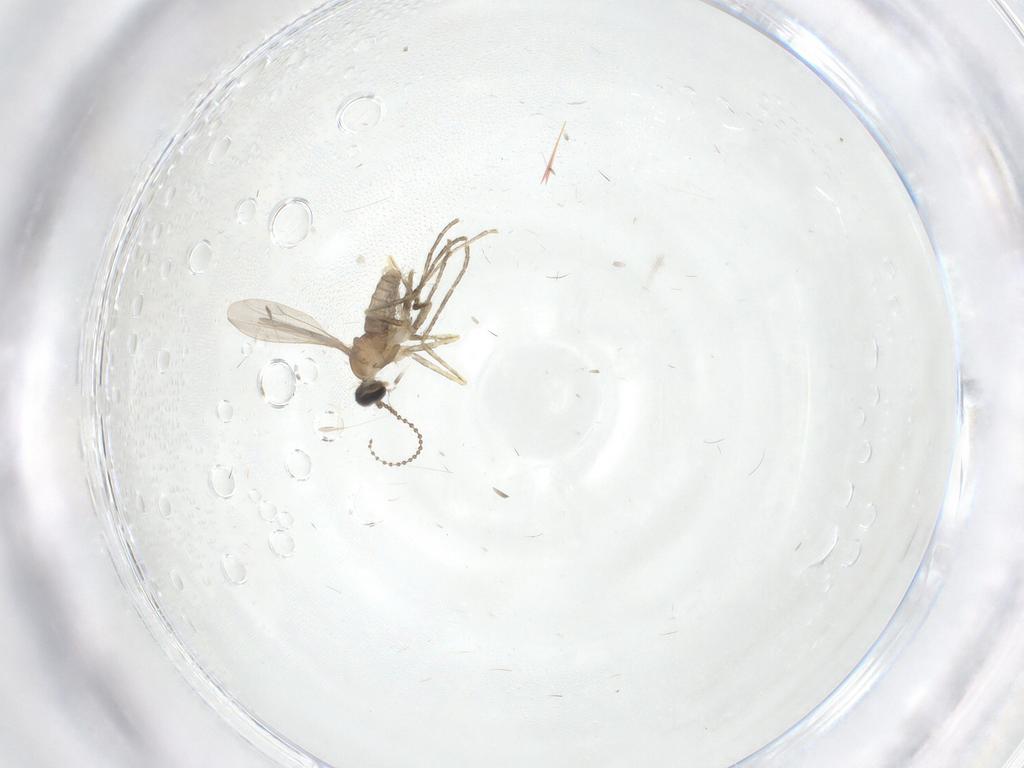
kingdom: Animalia
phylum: Arthropoda
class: Insecta
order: Diptera
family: Cecidomyiidae
